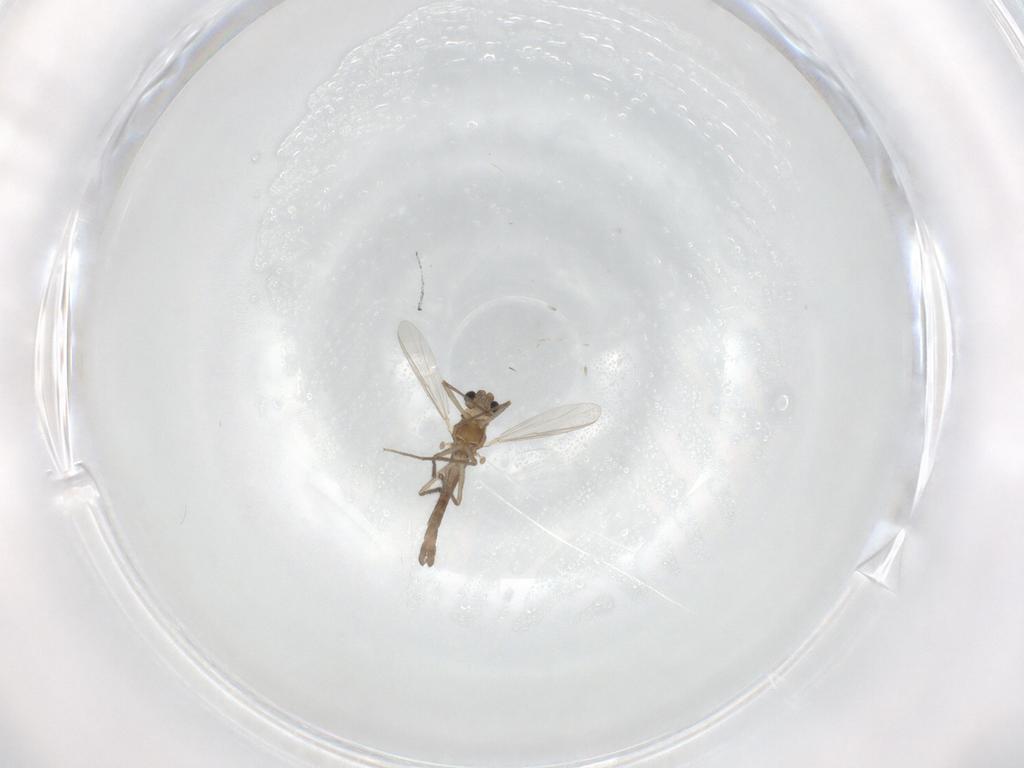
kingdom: Animalia
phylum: Arthropoda
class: Insecta
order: Diptera
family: Chironomidae
